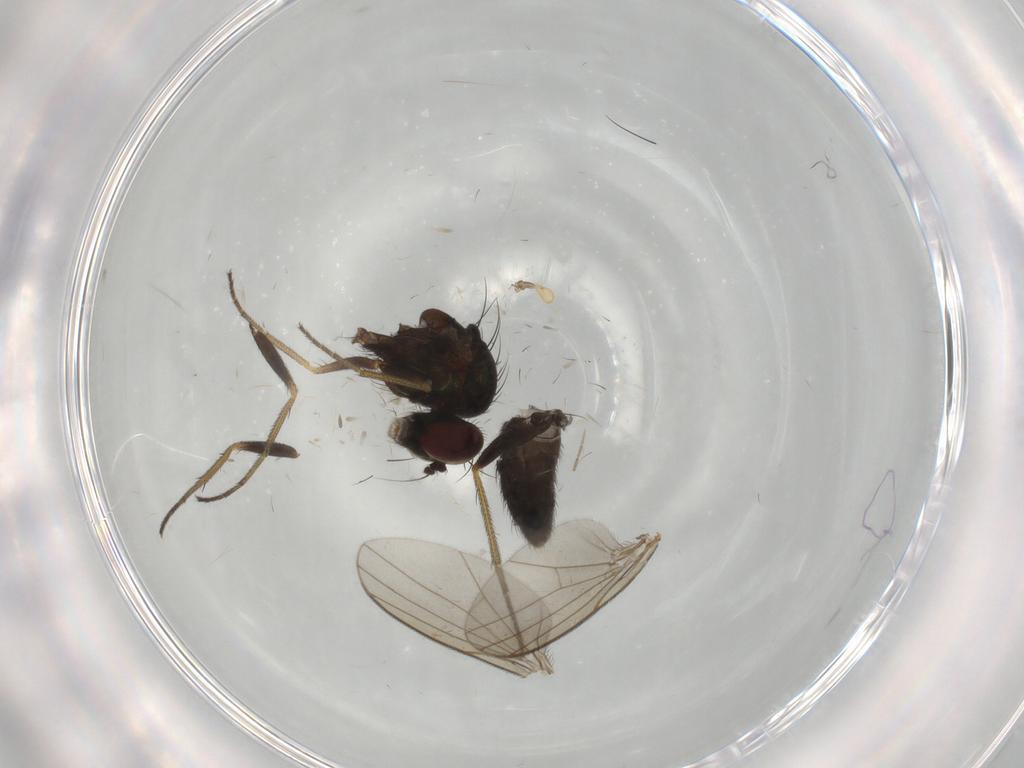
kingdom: Animalia
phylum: Arthropoda
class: Insecta
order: Diptera
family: Dolichopodidae
